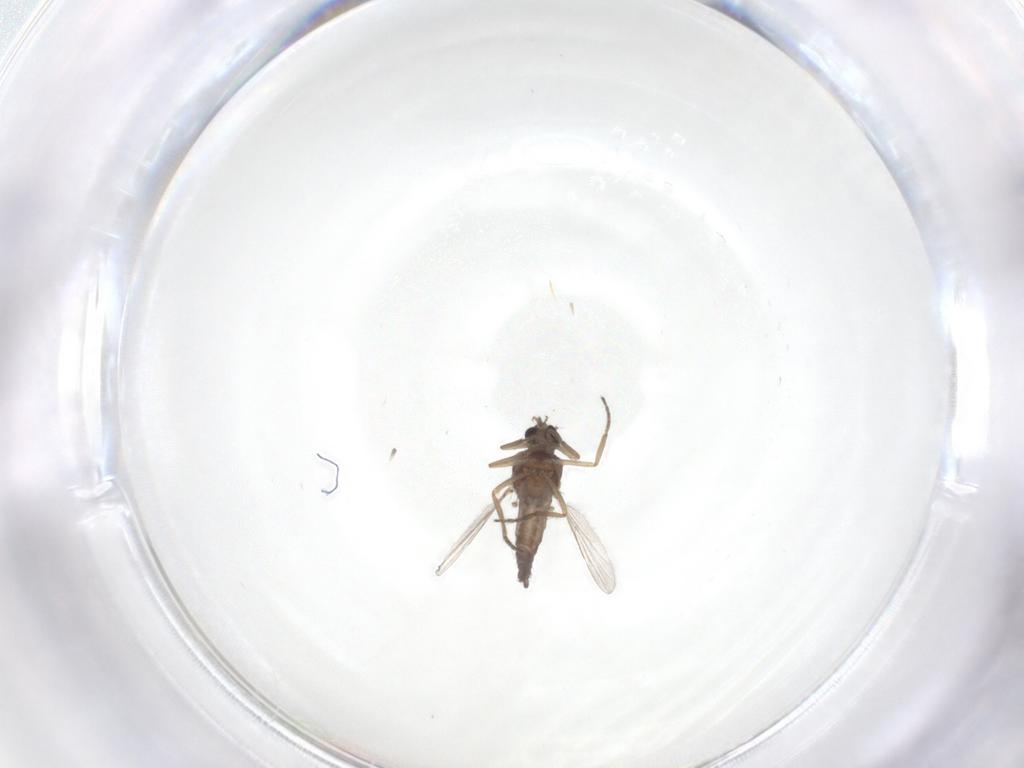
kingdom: Animalia
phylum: Arthropoda
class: Insecta
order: Diptera
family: Ceratopogonidae
